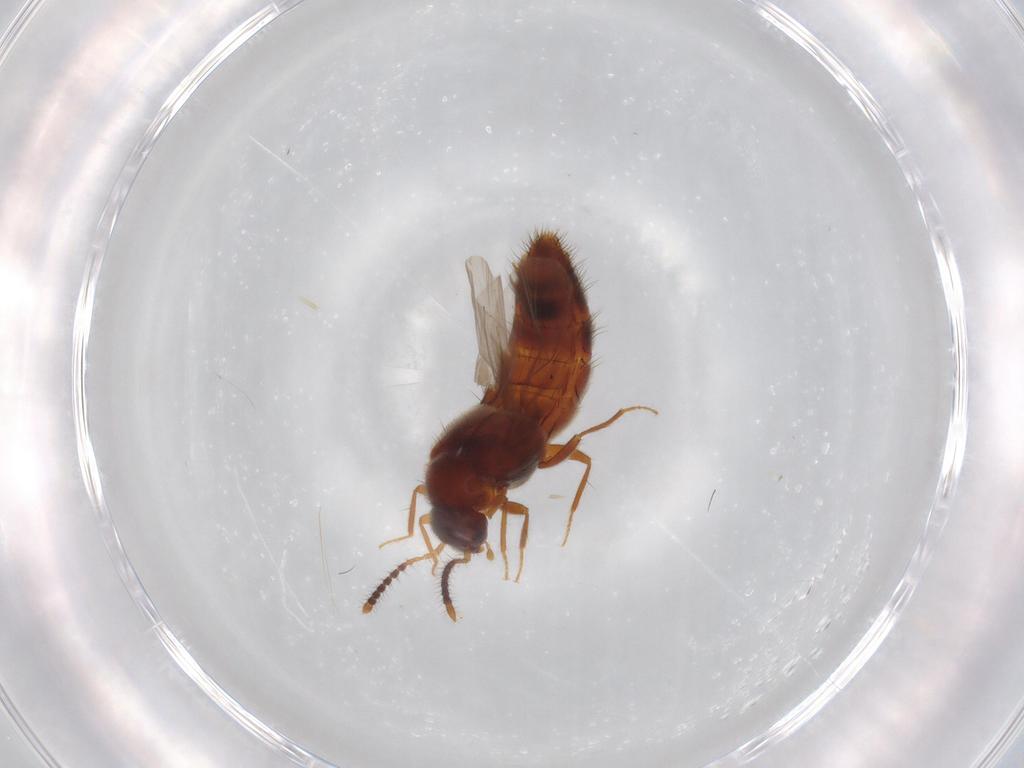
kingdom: Animalia
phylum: Arthropoda
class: Insecta
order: Coleoptera
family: Staphylinidae
